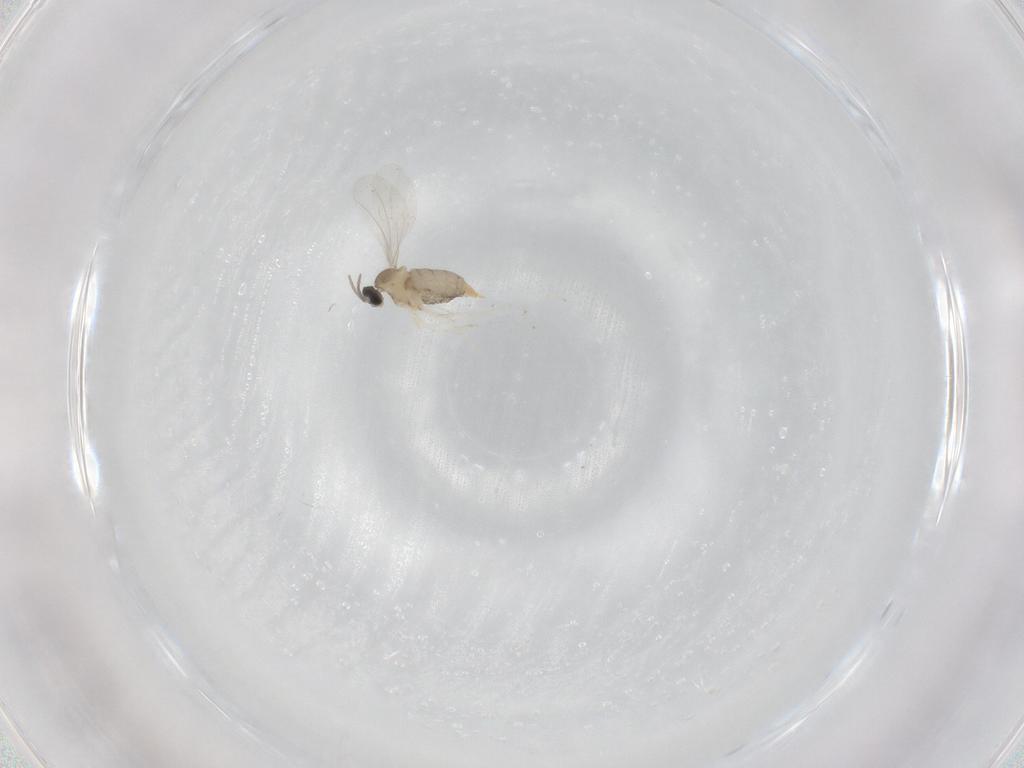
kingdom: Animalia
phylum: Arthropoda
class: Insecta
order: Diptera
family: Cecidomyiidae
